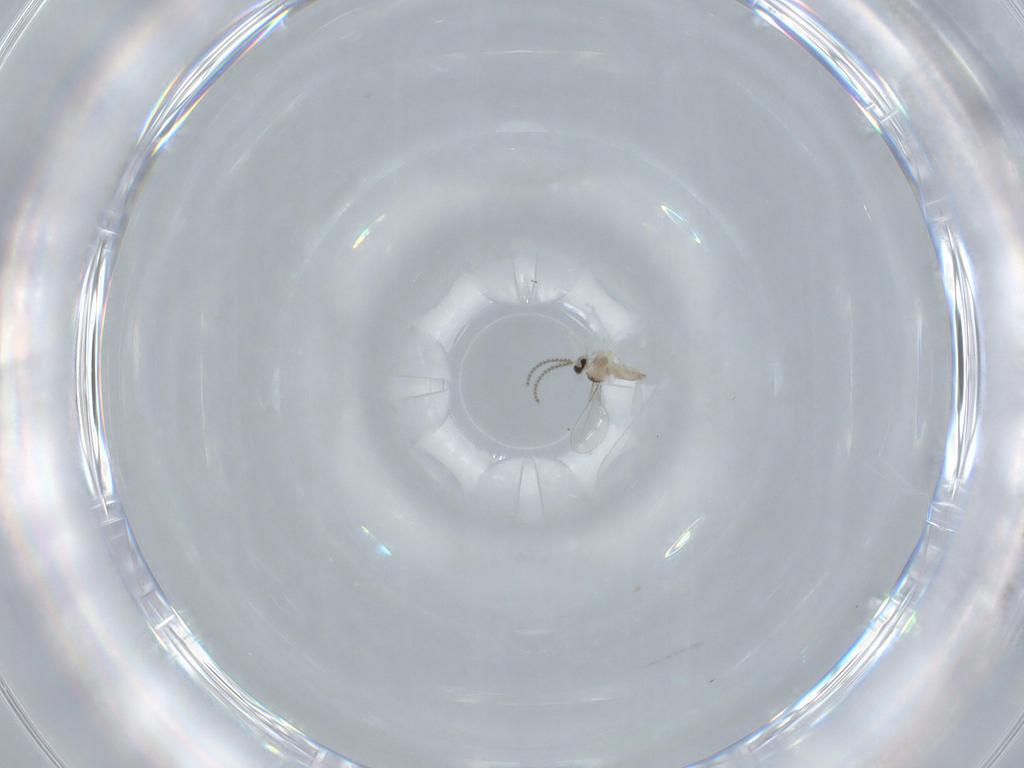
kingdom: Animalia
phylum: Arthropoda
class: Insecta
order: Diptera
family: Cecidomyiidae
